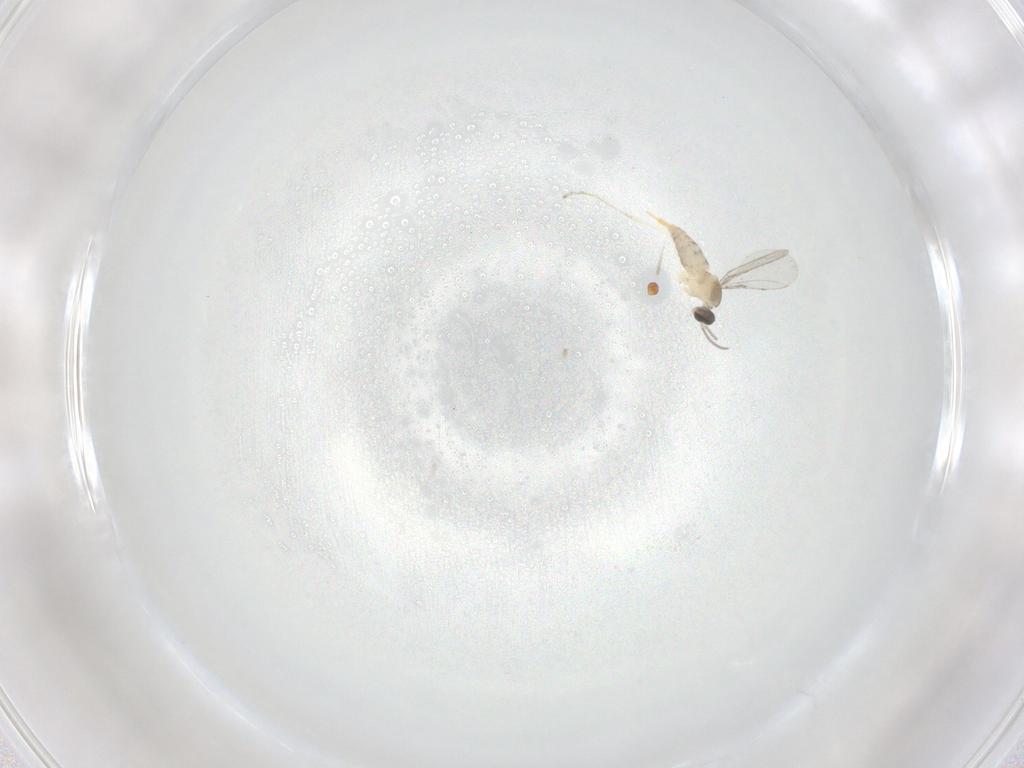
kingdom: Animalia
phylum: Arthropoda
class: Insecta
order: Diptera
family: Cecidomyiidae
